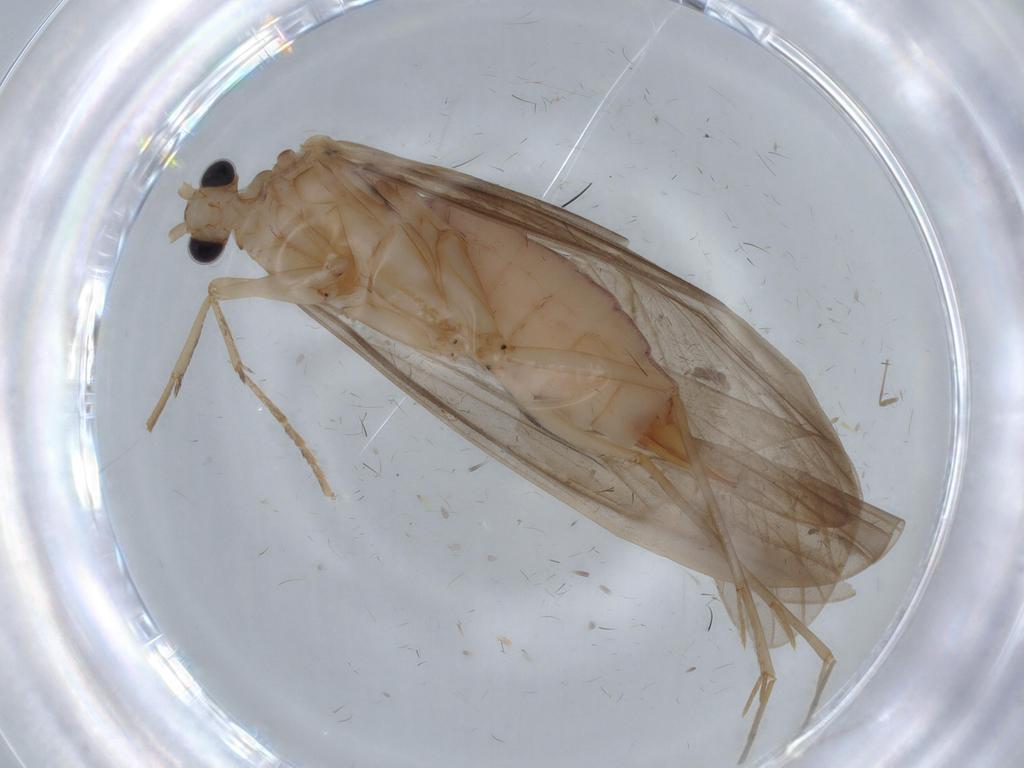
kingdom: Animalia
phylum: Arthropoda
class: Insecta
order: Trichoptera
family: Psychomyiidae
